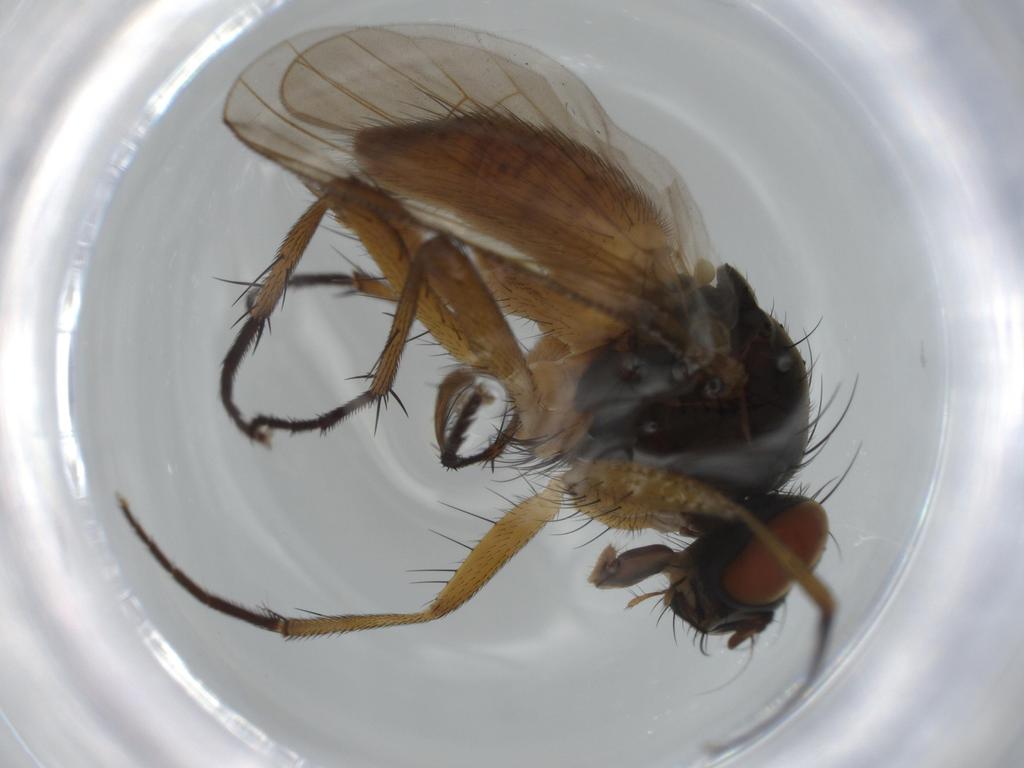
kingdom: Animalia
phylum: Arthropoda
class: Insecta
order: Diptera
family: Muscidae
